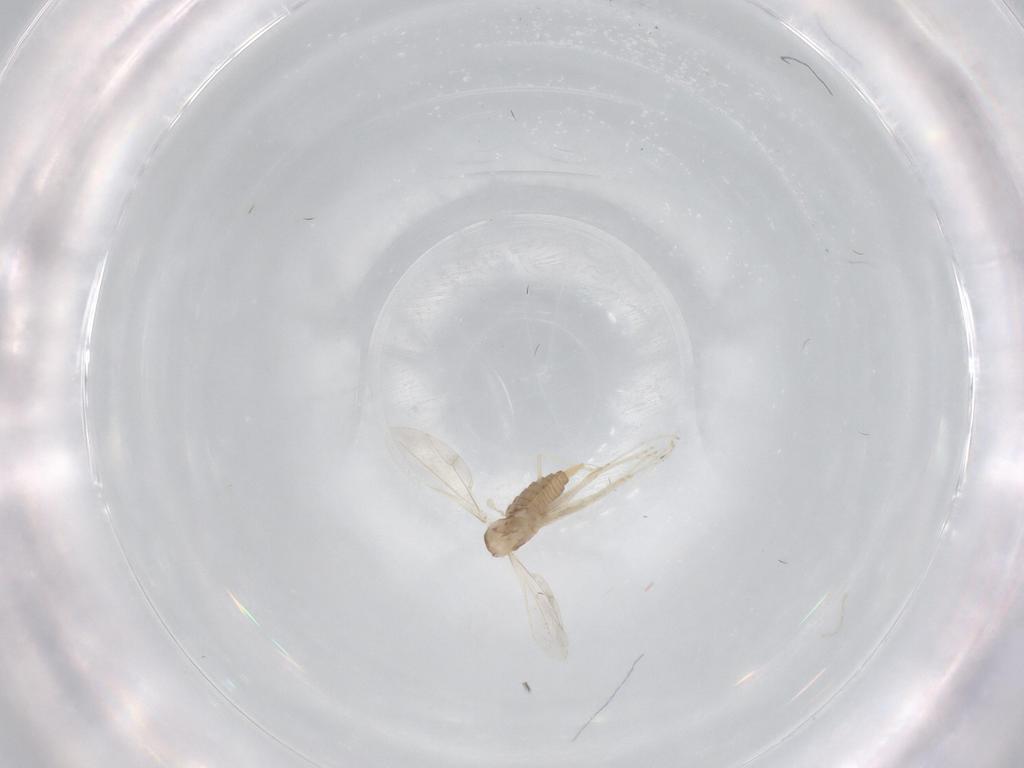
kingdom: Animalia
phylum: Arthropoda
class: Insecta
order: Diptera
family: Cecidomyiidae
